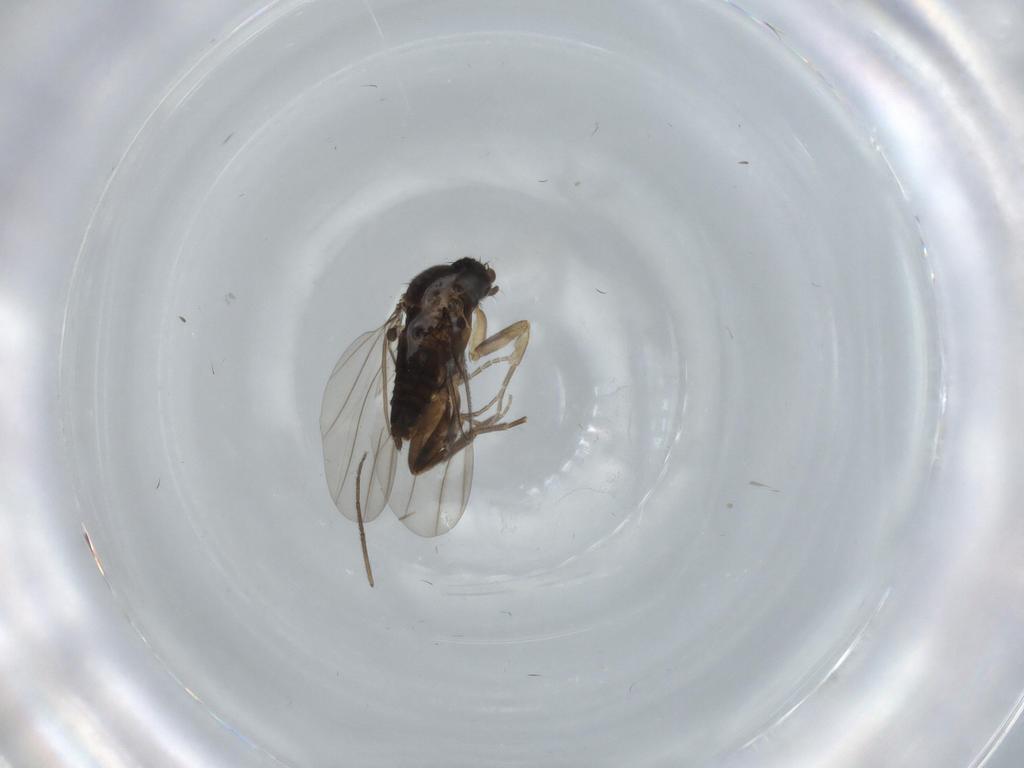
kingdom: Animalia
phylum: Arthropoda
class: Insecta
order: Diptera
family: Phoridae
